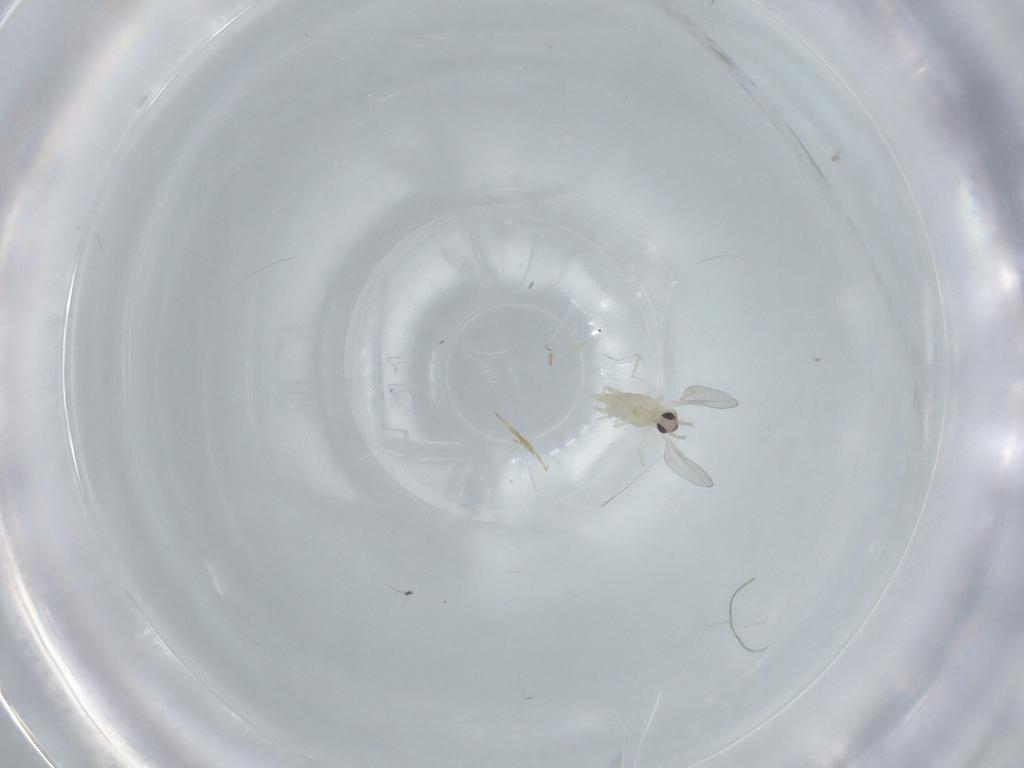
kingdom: Animalia
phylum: Arthropoda
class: Insecta
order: Diptera
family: Cecidomyiidae
